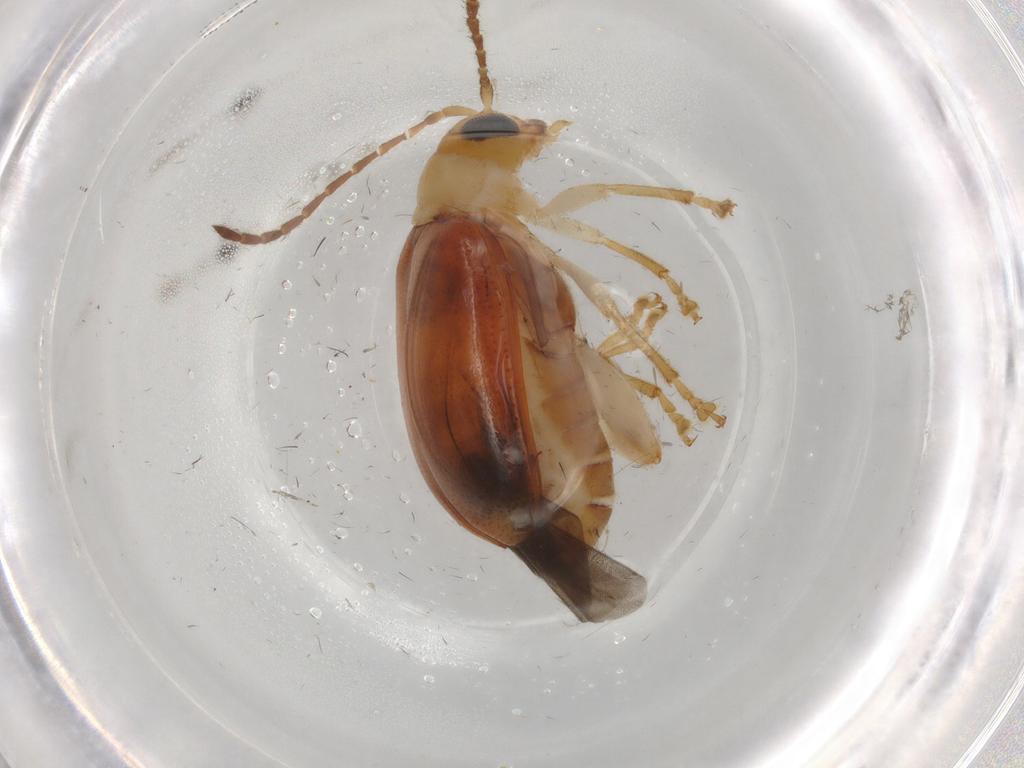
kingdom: Animalia
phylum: Arthropoda
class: Insecta
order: Coleoptera
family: Chrysomelidae
